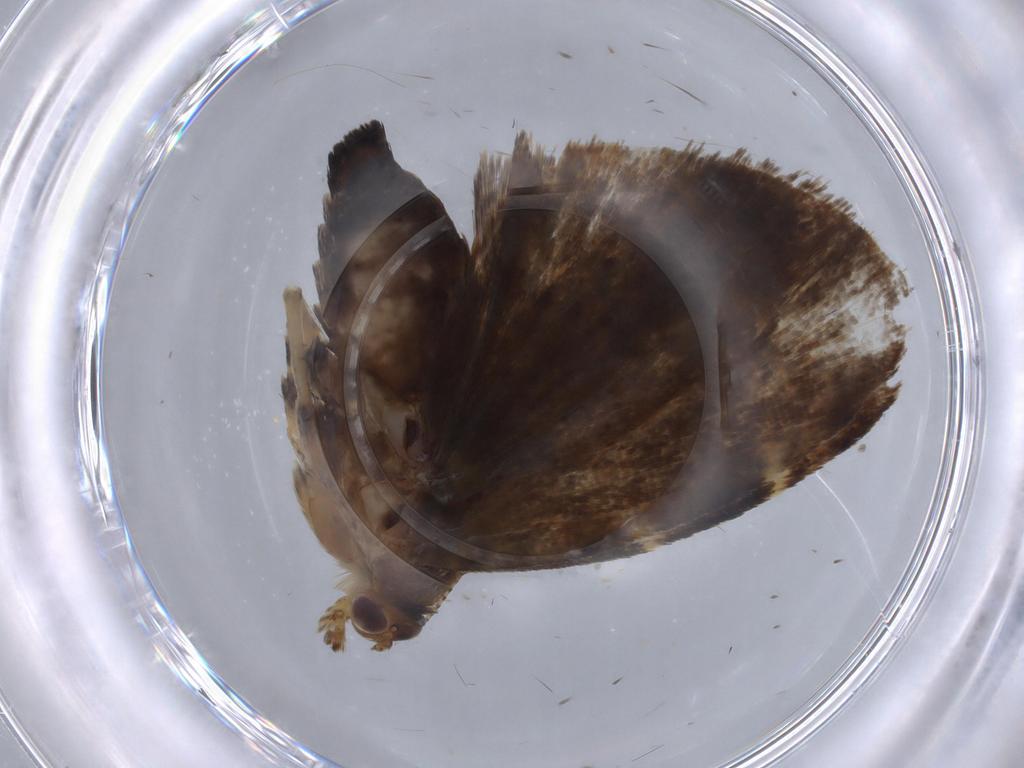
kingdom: Animalia
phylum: Arthropoda
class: Insecta
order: Lepidoptera
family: Choreutidae
